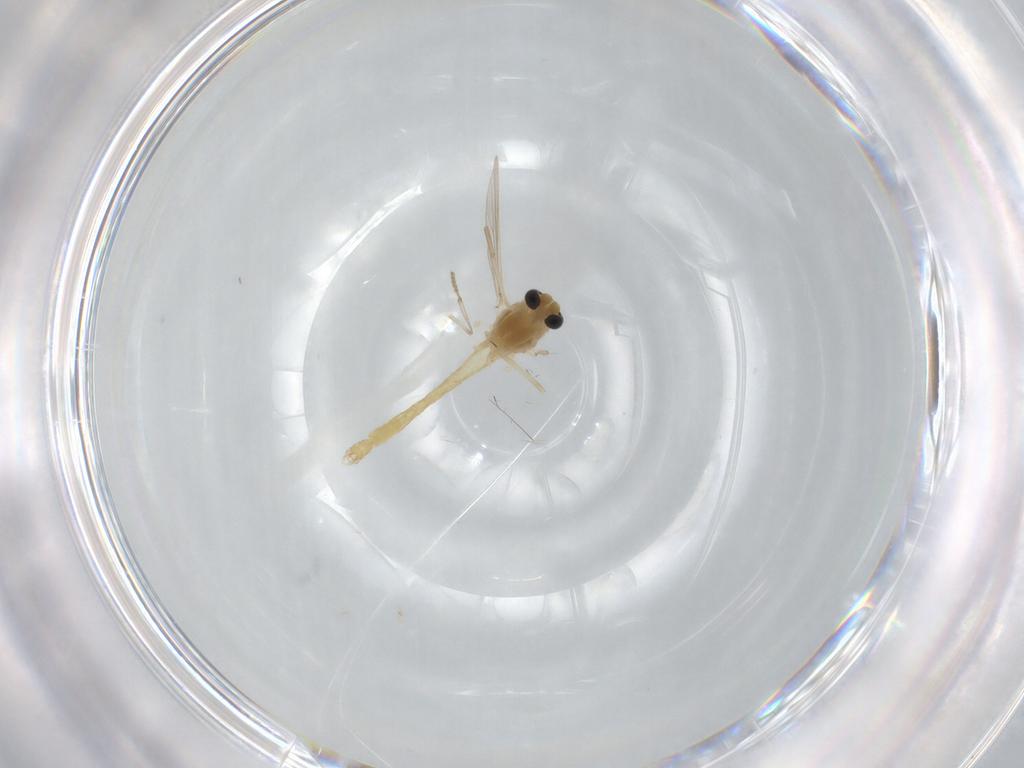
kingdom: Animalia
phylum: Arthropoda
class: Insecta
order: Diptera
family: Chironomidae
